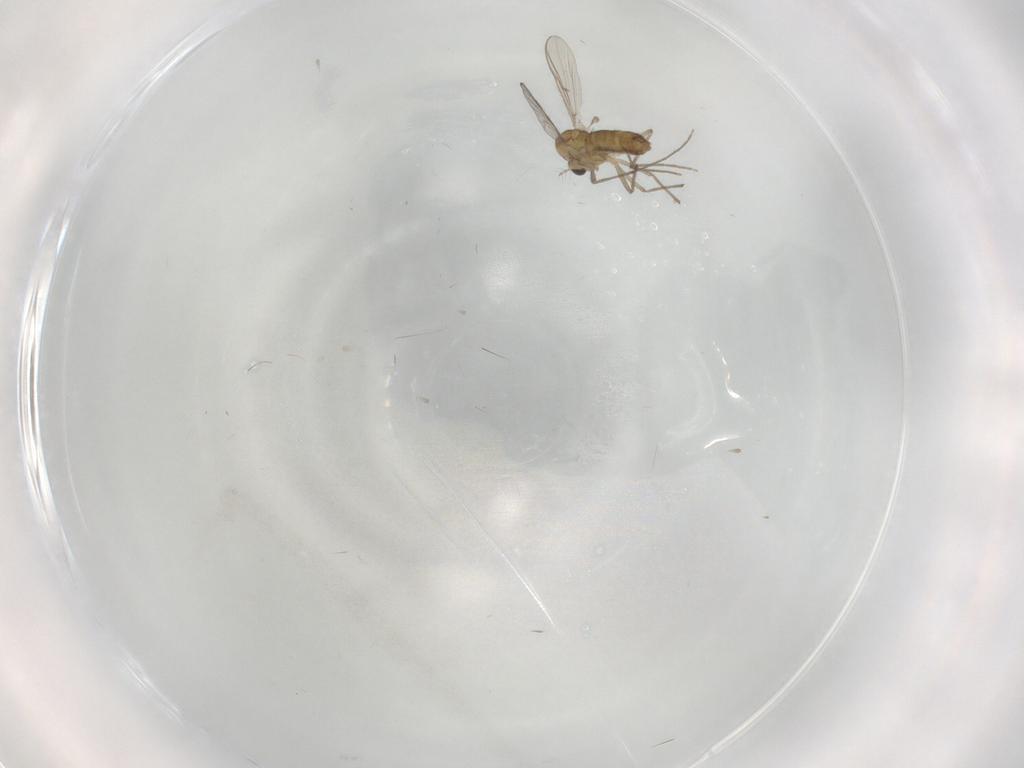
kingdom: Animalia
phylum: Arthropoda
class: Insecta
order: Diptera
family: Chironomidae
